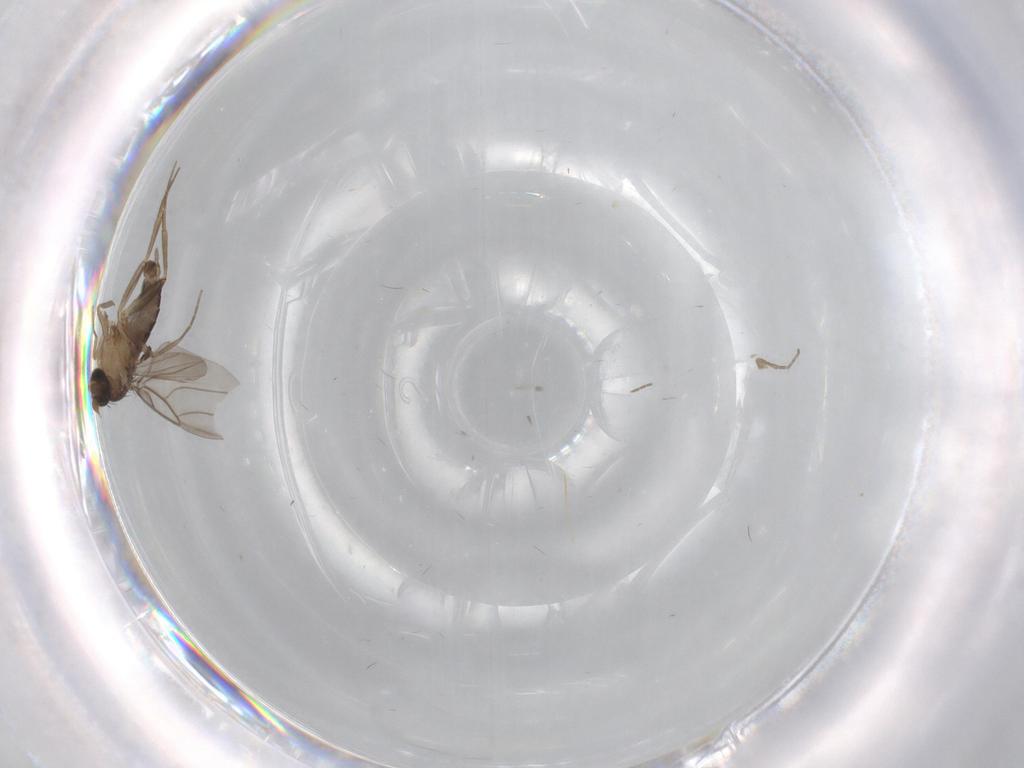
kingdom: Animalia
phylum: Arthropoda
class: Insecta
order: Diptera
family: Phoridae
